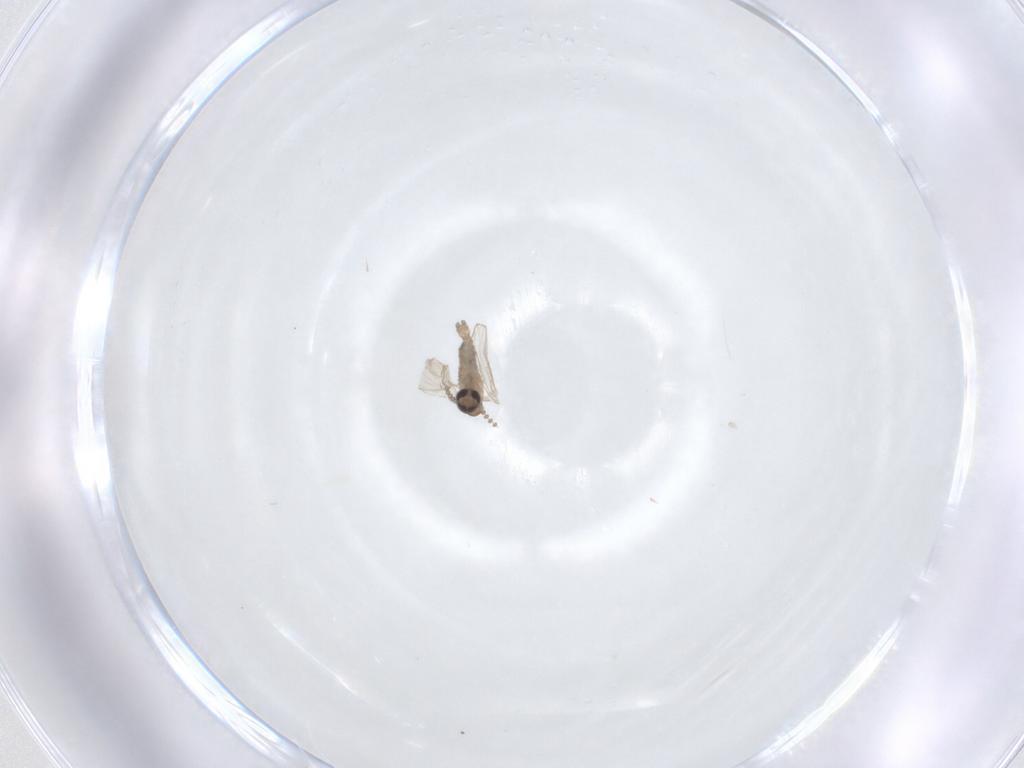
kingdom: Animalia
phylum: Arthropoda
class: Insecta
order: Diptera
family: Psychodidae
